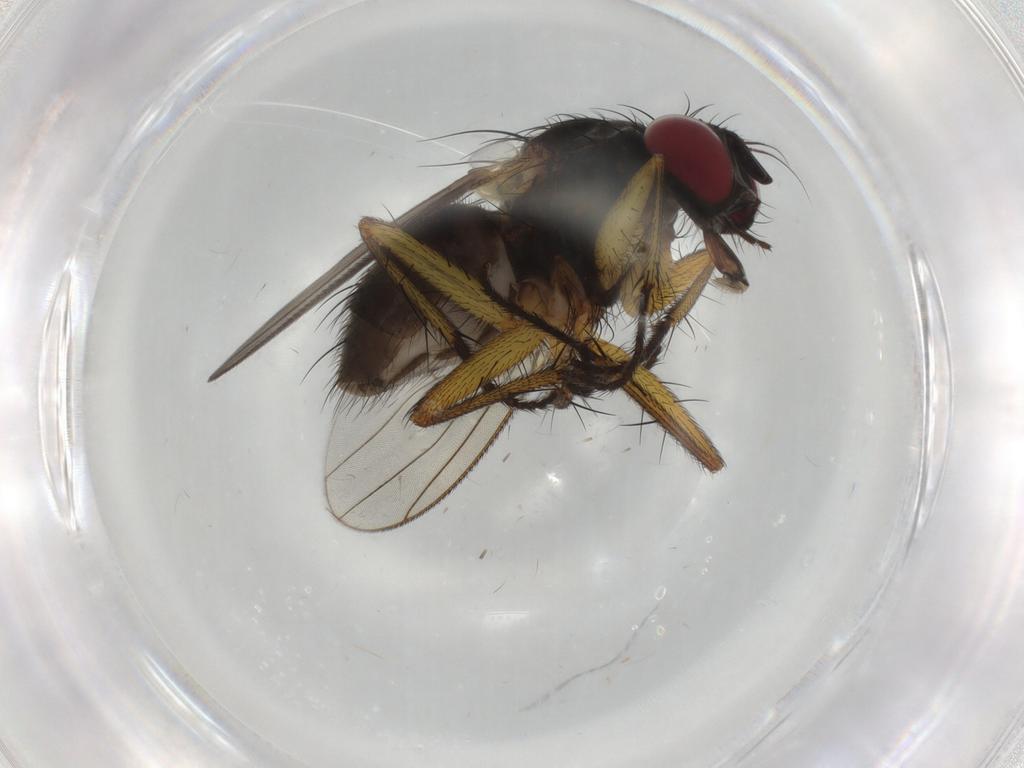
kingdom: Animalia
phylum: Arthropoda
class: Insecta
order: Diptera
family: Muscidae
